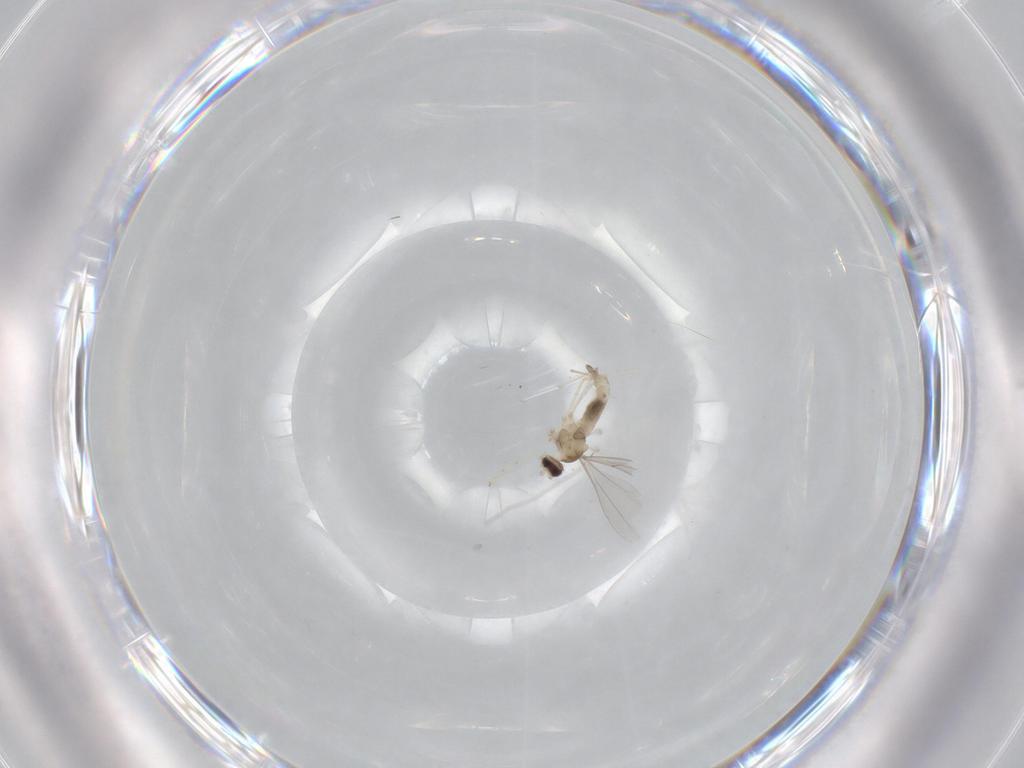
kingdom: Animalia
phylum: Arthropoda
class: Insecta
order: Diptera
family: Cecidomyiidae
